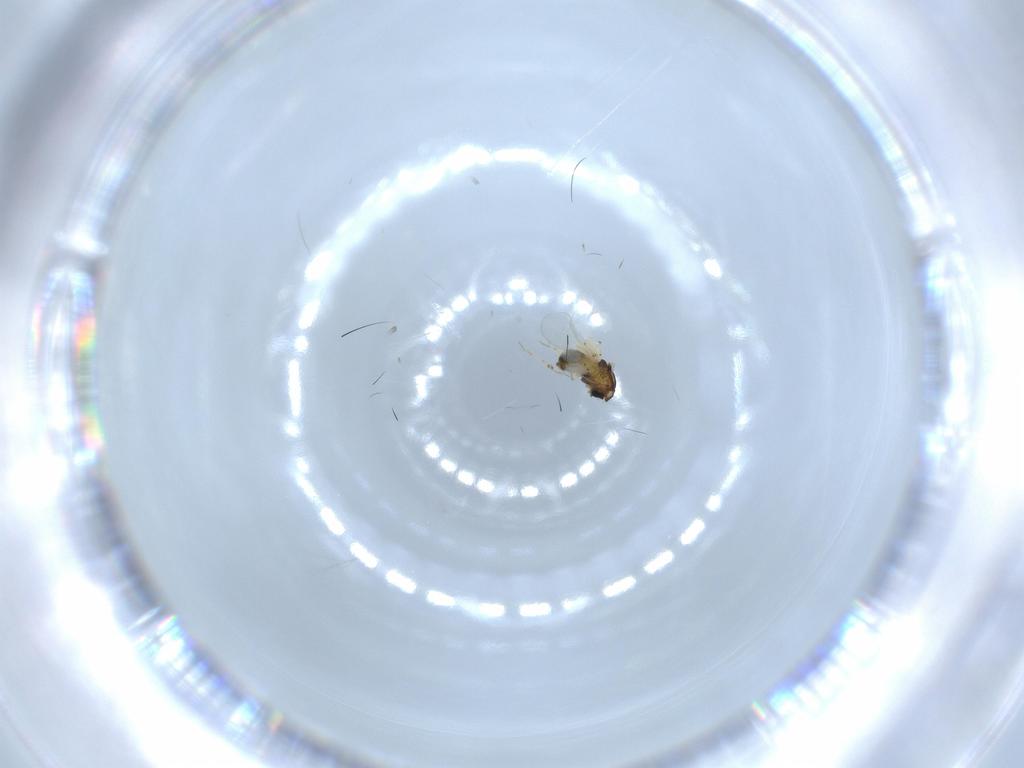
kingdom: Animalia
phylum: Arthropoda
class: Insecta
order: Diptera
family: Chironomidae
